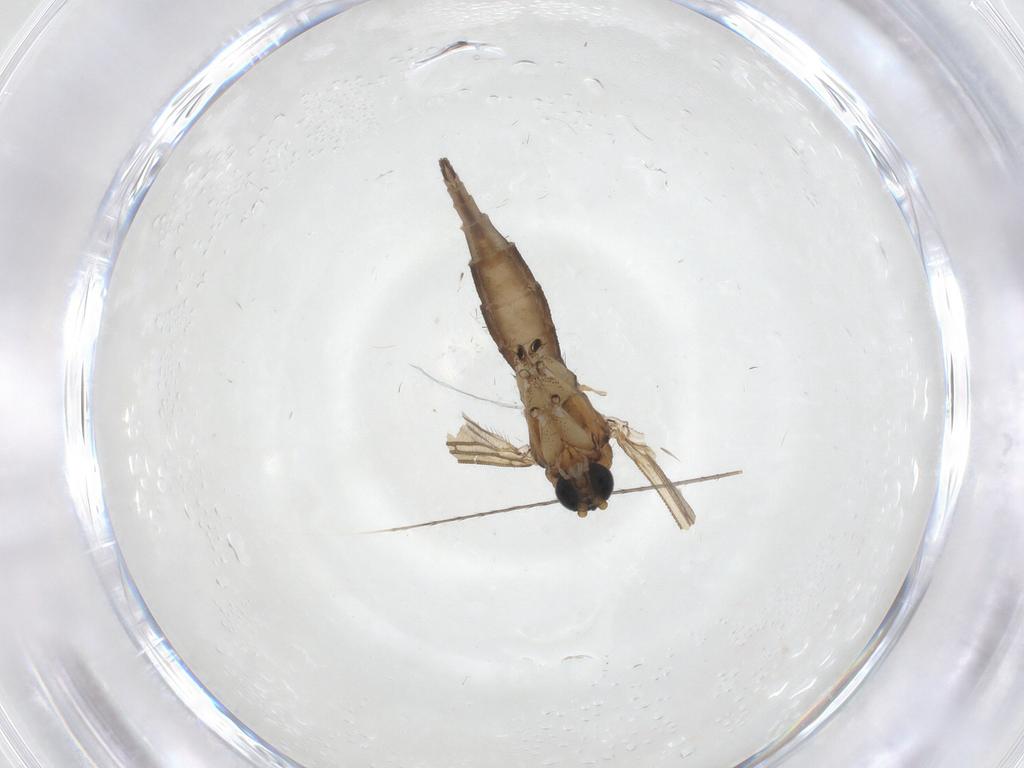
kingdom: Animalia
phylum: Arthropoda
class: Insecta
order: Diptera
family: Sciaridae
